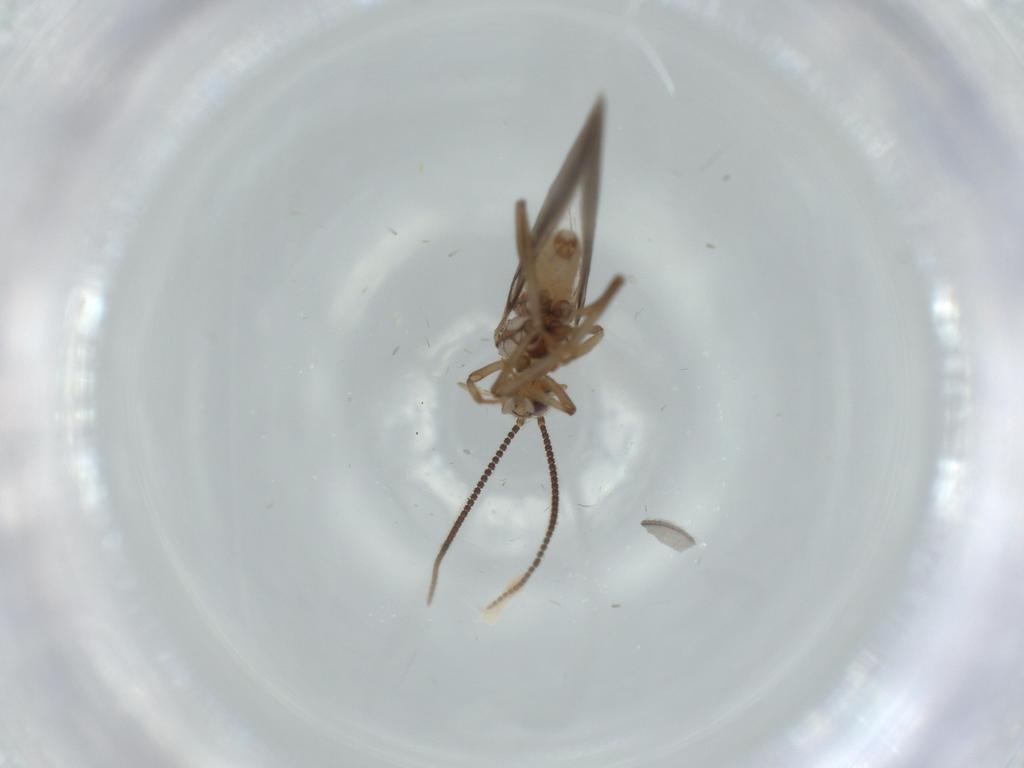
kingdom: Animalia
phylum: Arthropoda
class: Insecta
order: Neuroptera
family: Coniopterygidae
